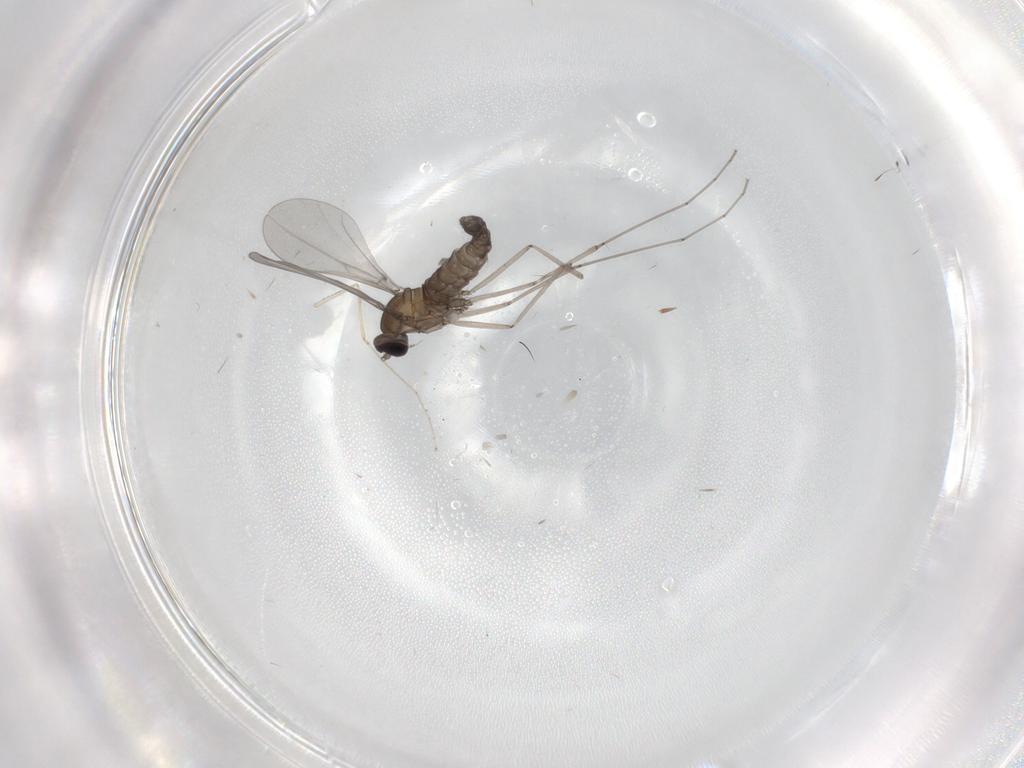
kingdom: Animalia
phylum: Arthropoda
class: Insecta
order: Diptera
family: Cecidomyiidae
